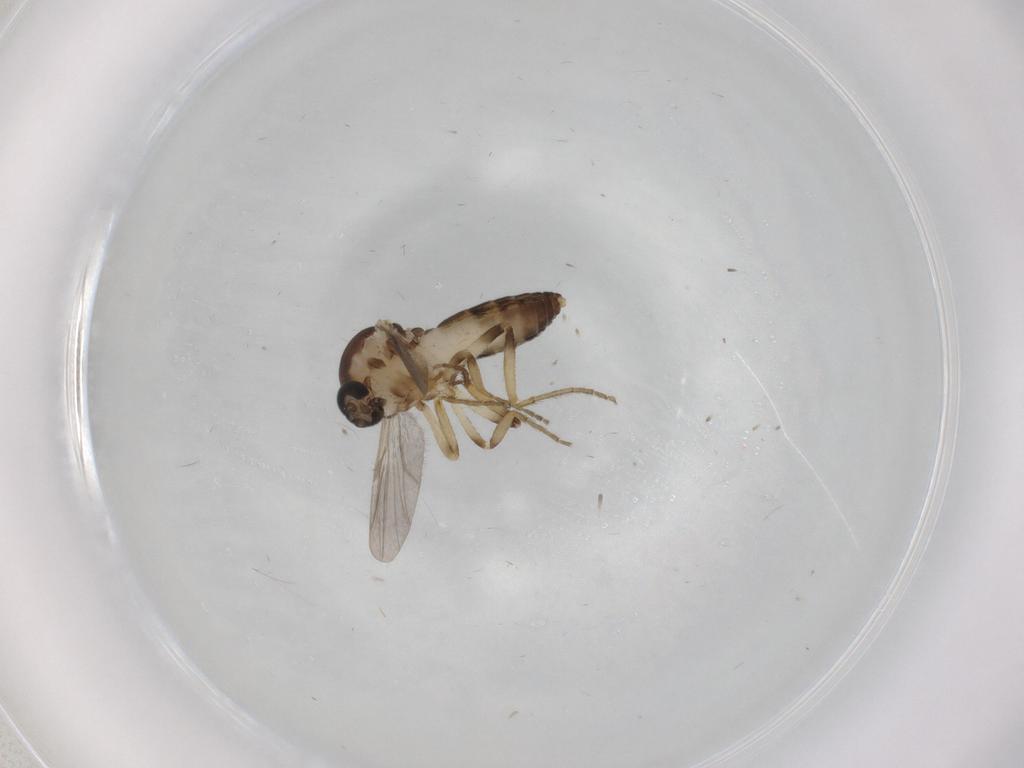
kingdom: Animalia
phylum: Arthropoda
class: Insecta
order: Diptera
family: Ceratopogonidae
